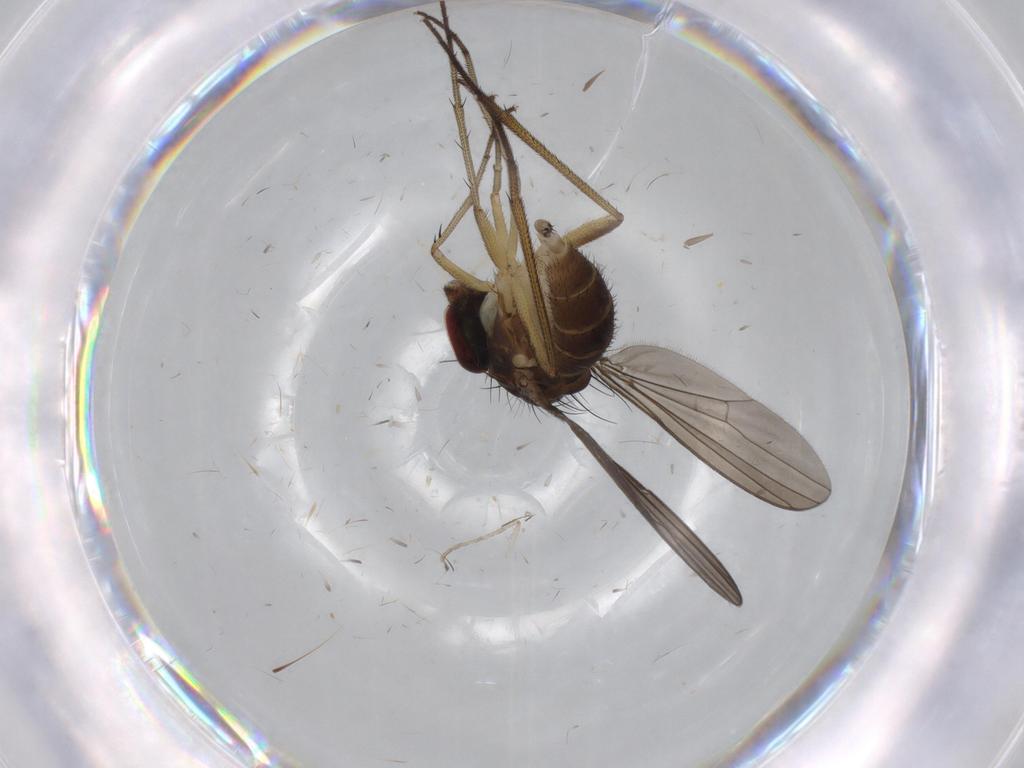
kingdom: Animalia
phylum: Arthropoda
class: Insecta
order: Diptera
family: Dolichopodidae
